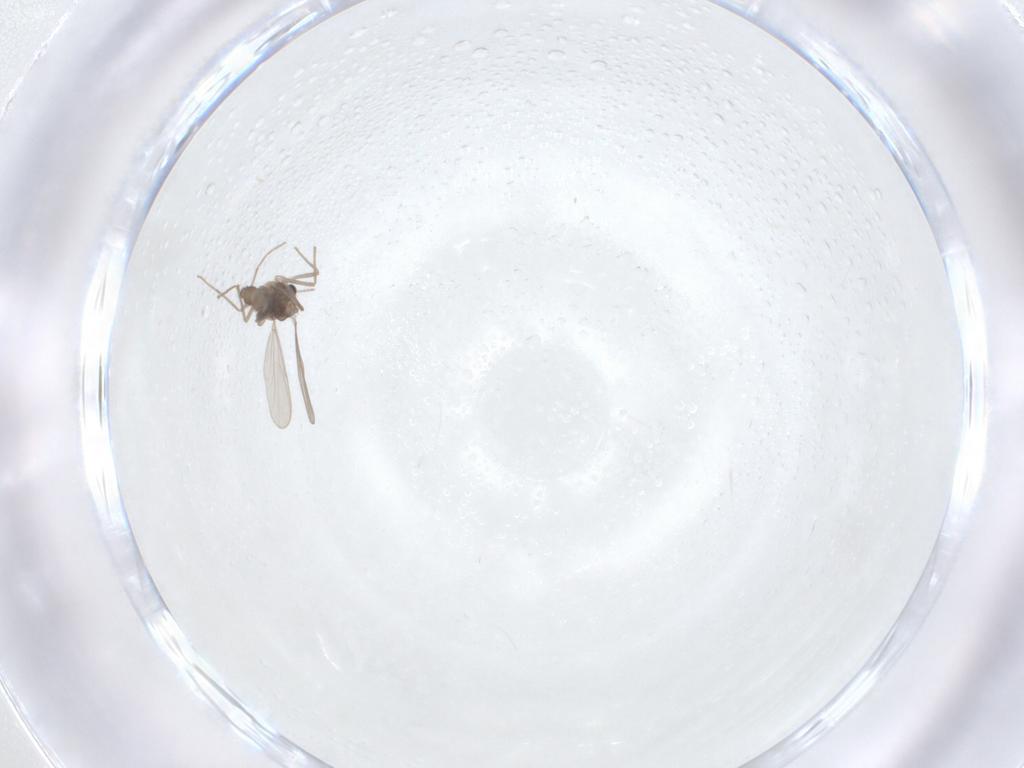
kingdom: Animalia
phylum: Arthropoda
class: Insecta
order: Diptera
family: Chironomidae
